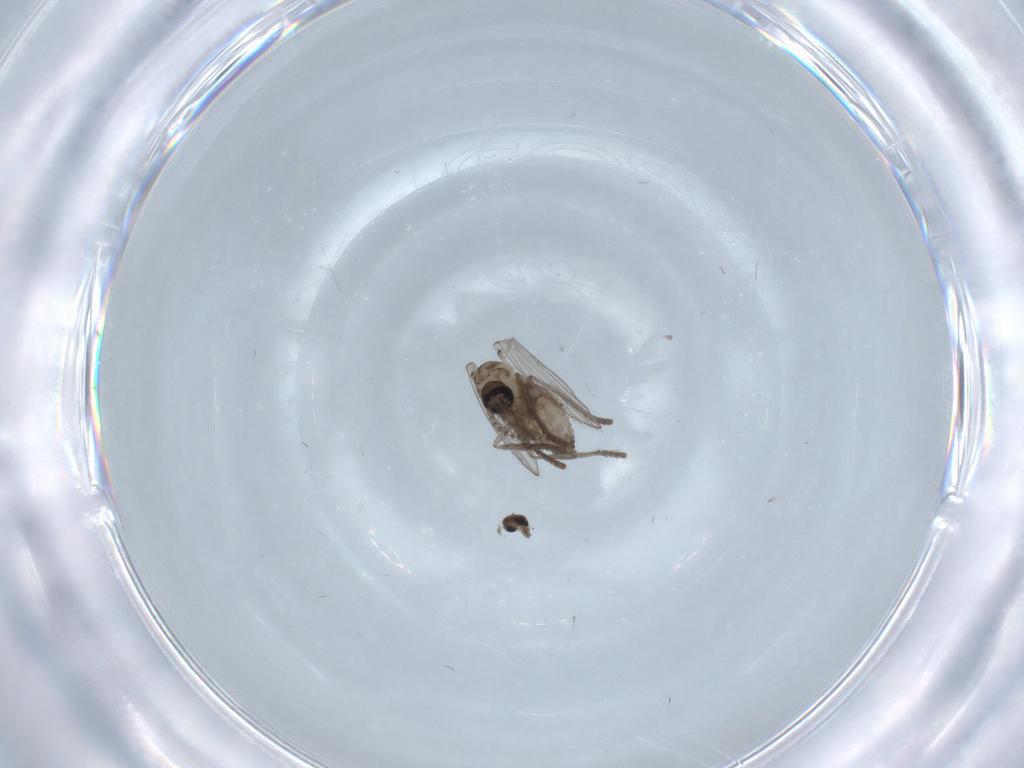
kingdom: Animalia
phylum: Arthropoda
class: Insecta
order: Diptera
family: Psychodidae
